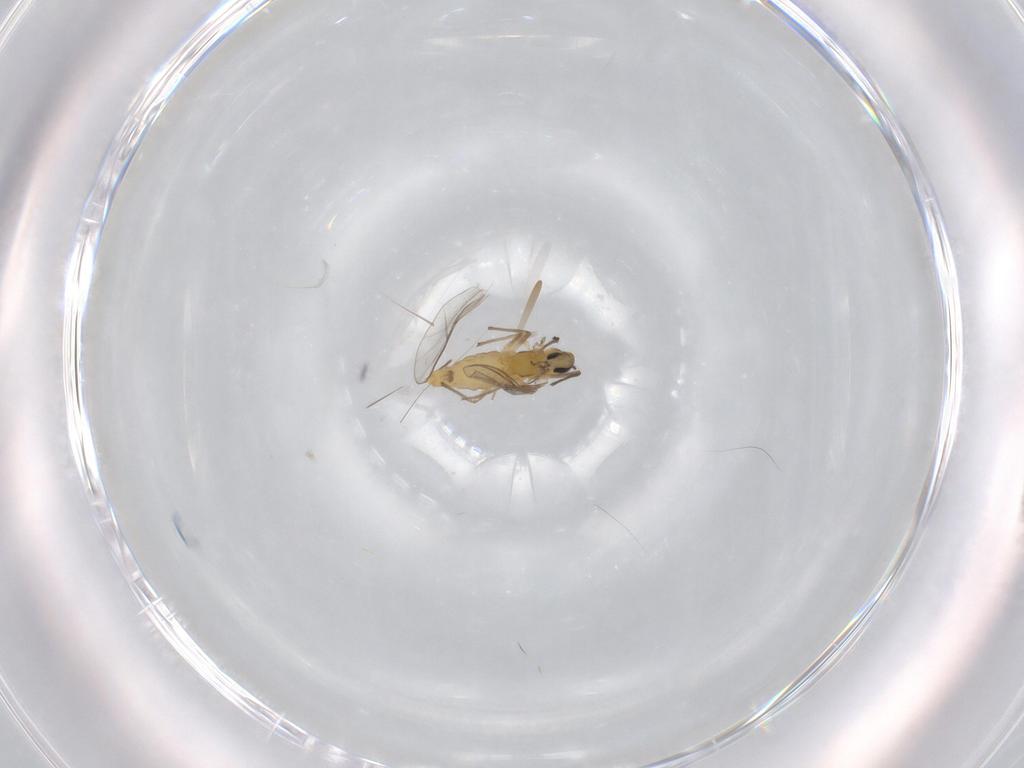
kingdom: Animalia
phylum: Arthropoda
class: Insecta
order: Diptera
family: Chironomidae
